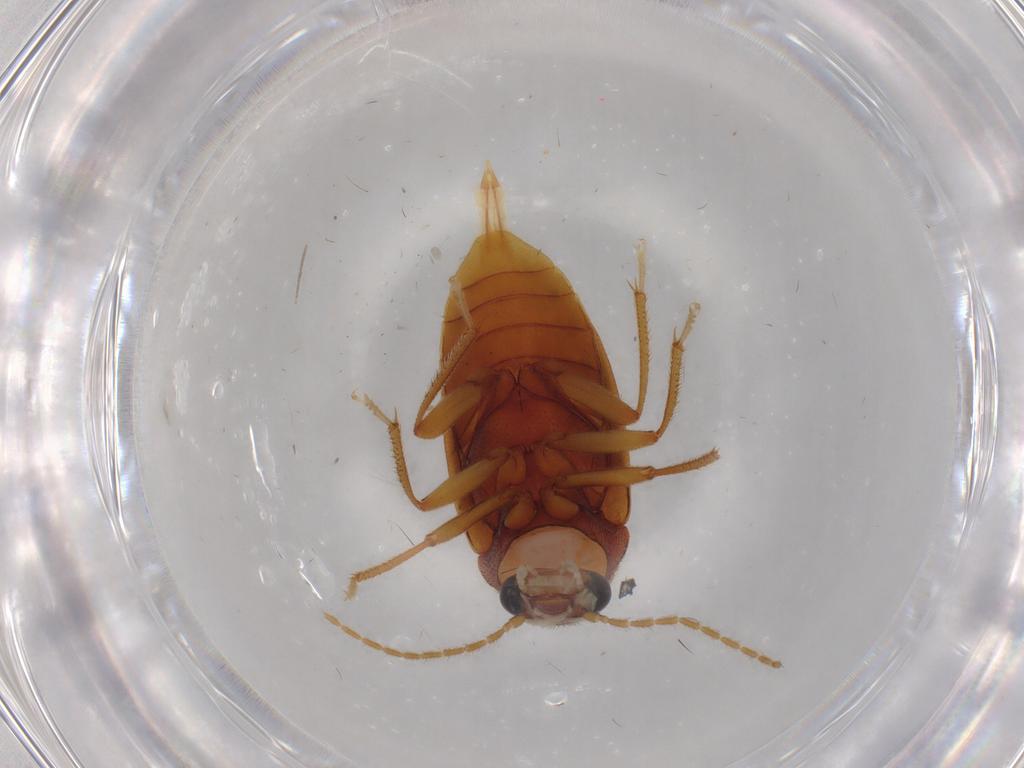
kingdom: Animalia
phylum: Arthropoda
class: Insecta
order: Coleoptera
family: Ptilodactylidae
